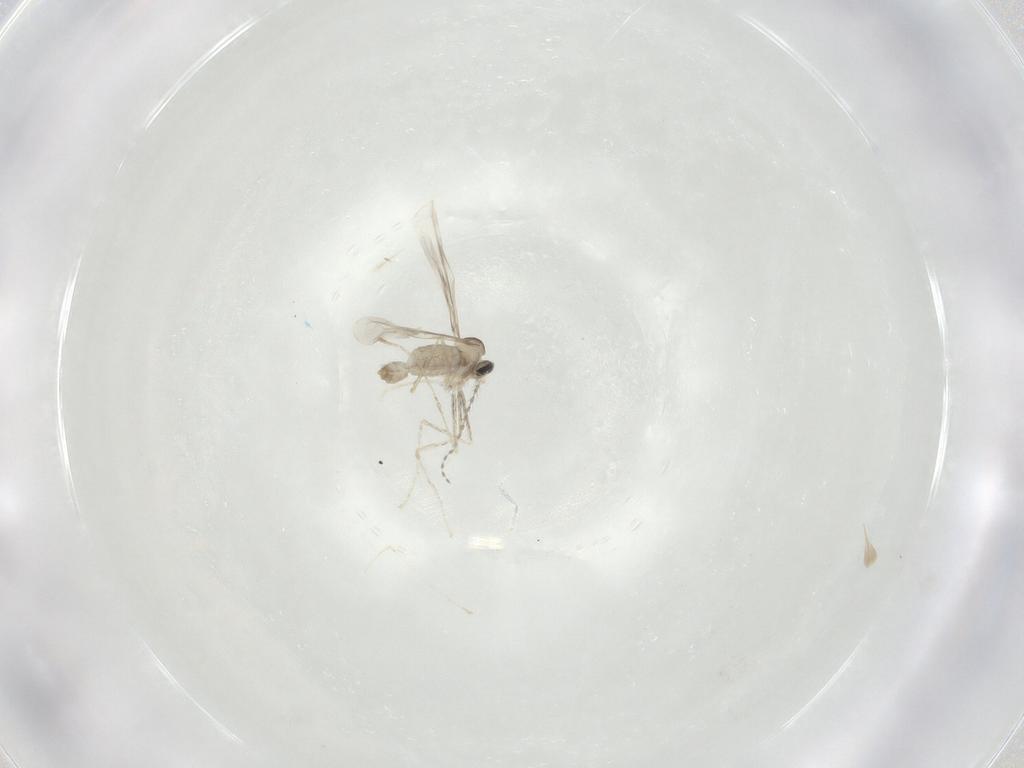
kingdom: Animalia
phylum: Arthropoda
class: Insecta
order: Diptera
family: Cecidomyiidae
